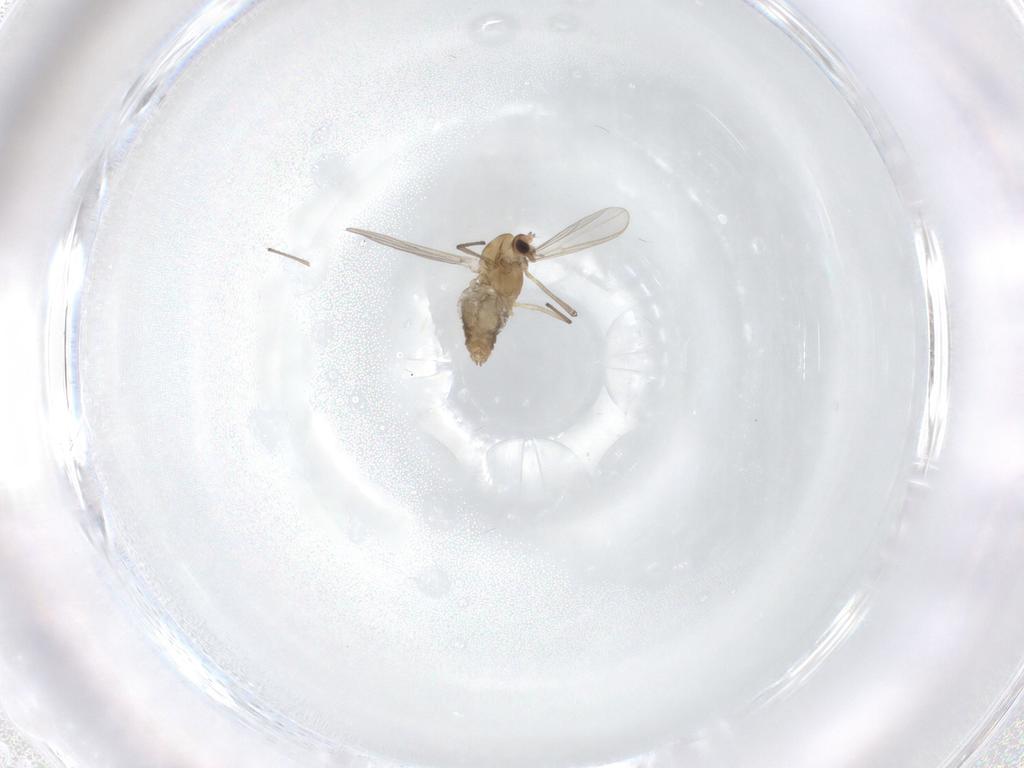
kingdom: Animalia
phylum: Arthropoda
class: Insecta
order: Diptera
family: Chironomidae
